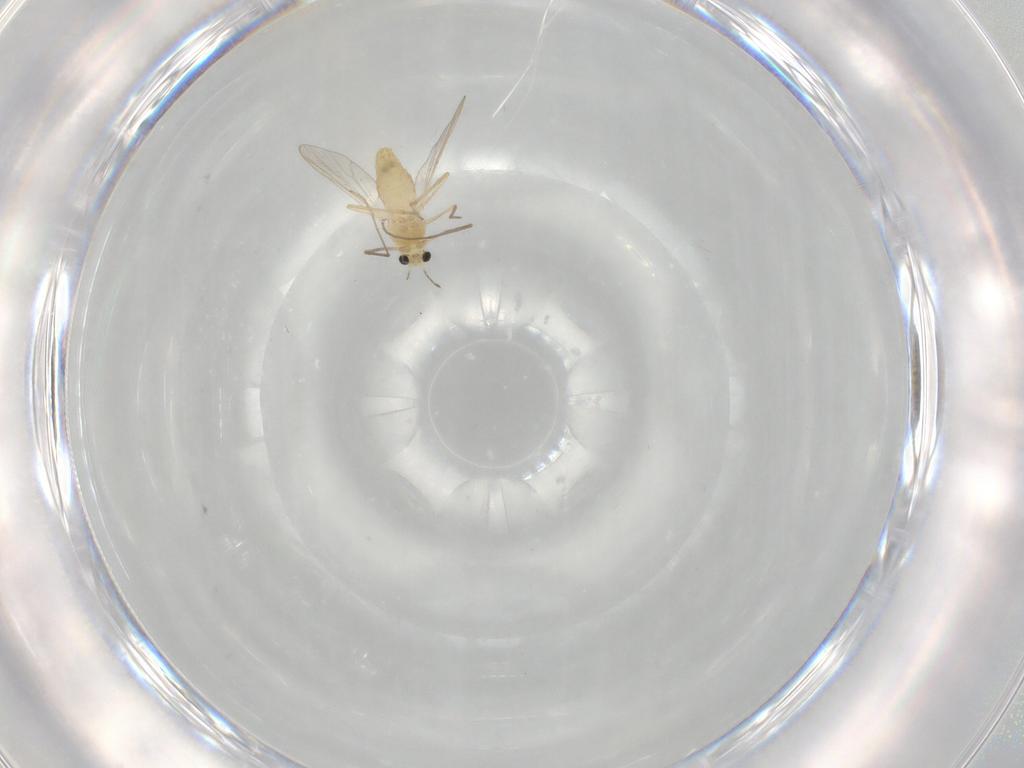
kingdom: Animalia
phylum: Arthropoda
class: Insecta
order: Diptera
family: Chironomidae
